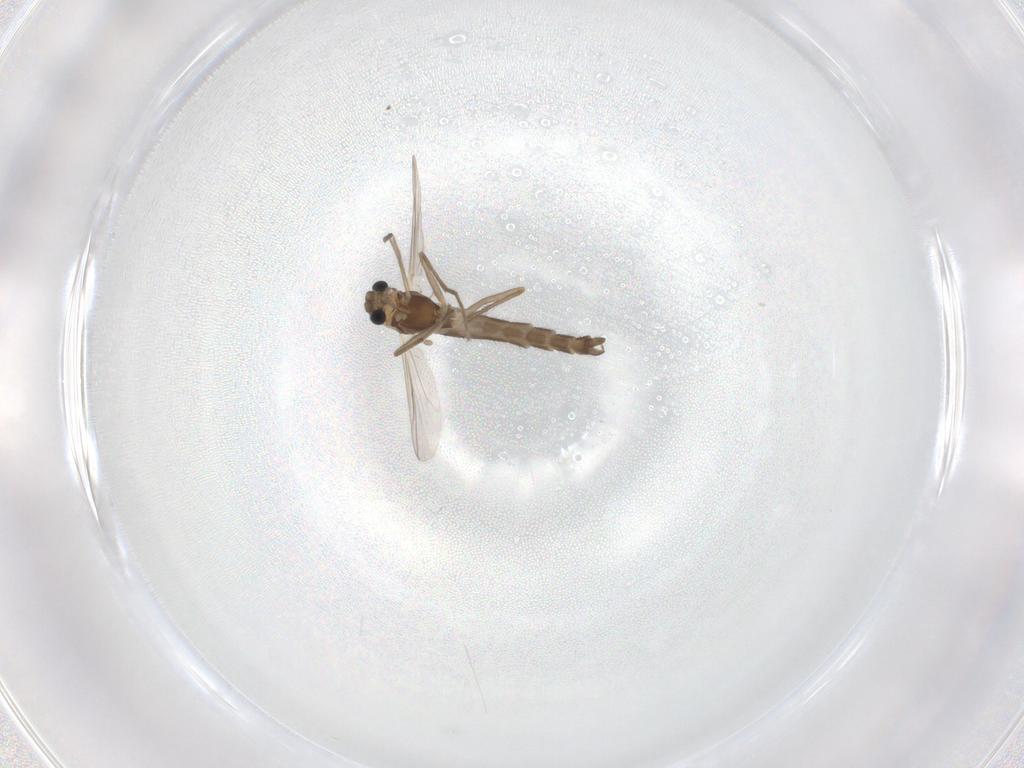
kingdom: Animalia
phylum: Arthropoda
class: Insecta
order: Diptera
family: Chironomidae
